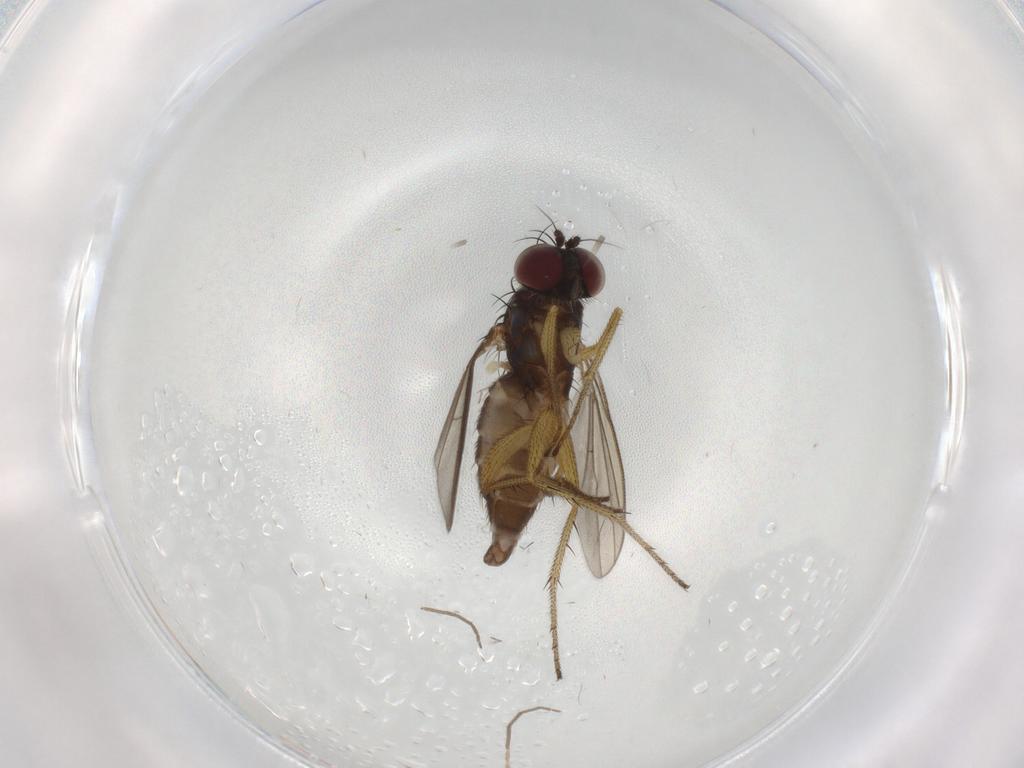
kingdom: Animalia
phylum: Arthropoda
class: Insecta
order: Diptera
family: Dolichopodidae
